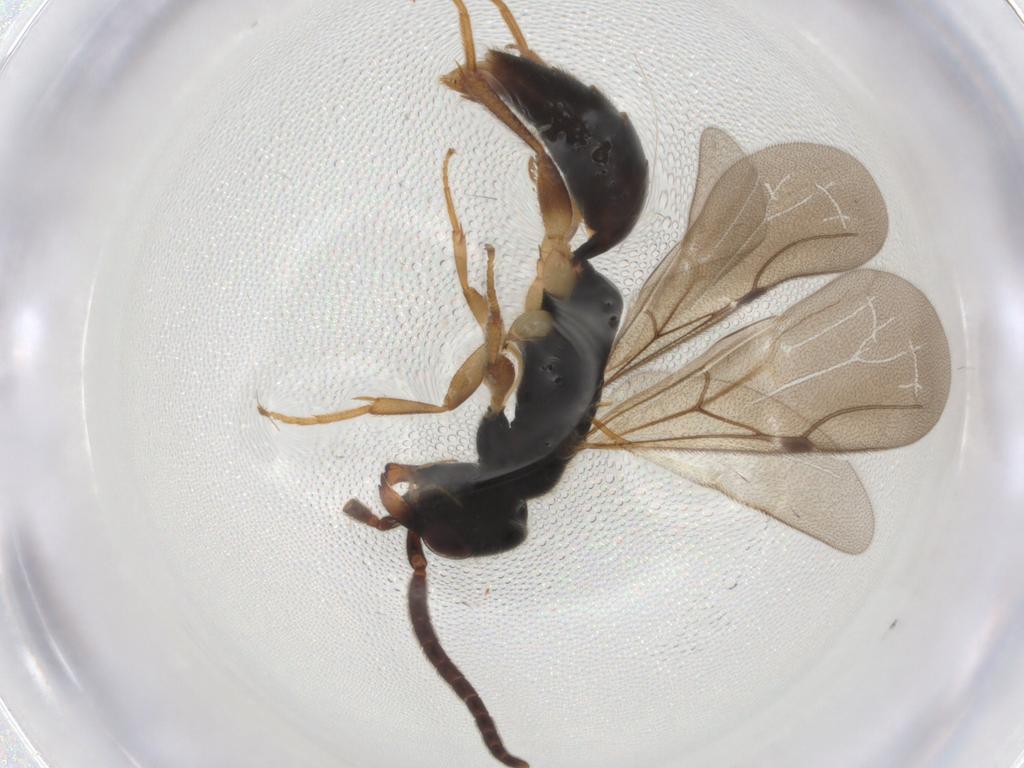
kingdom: Animalia
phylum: Arthropoda
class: Insecta
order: Hymenoptera
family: Bethylidae
